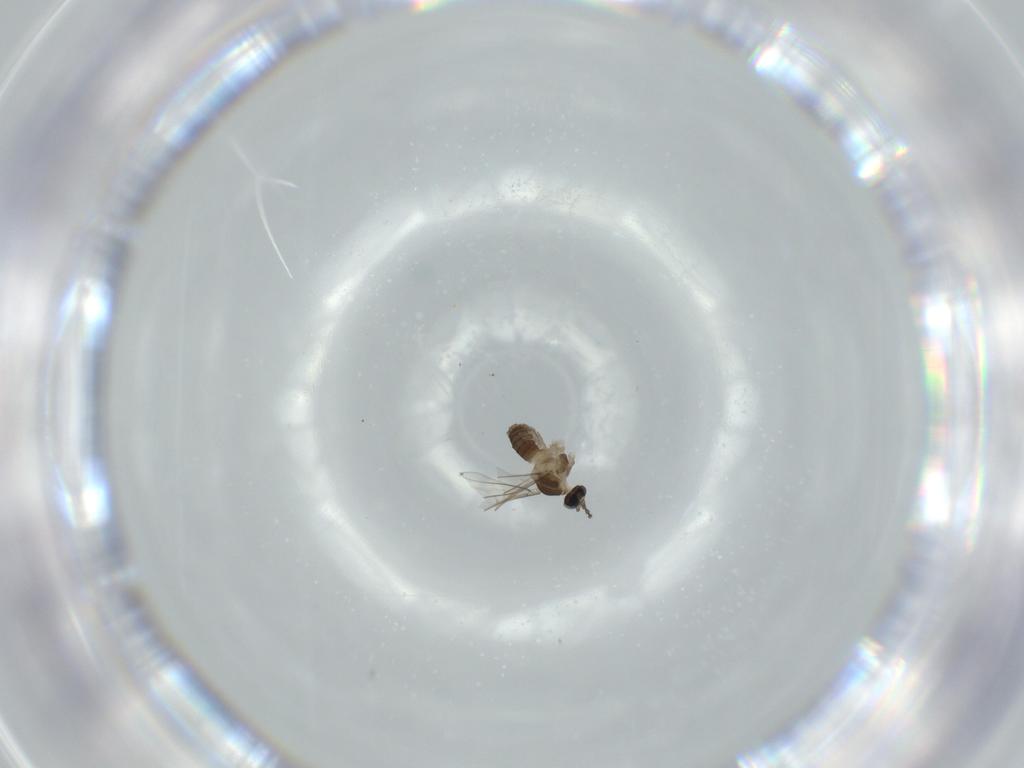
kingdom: Animalia
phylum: Arthropoda
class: Insecta
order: Diptera
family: Cecidomyiidae
